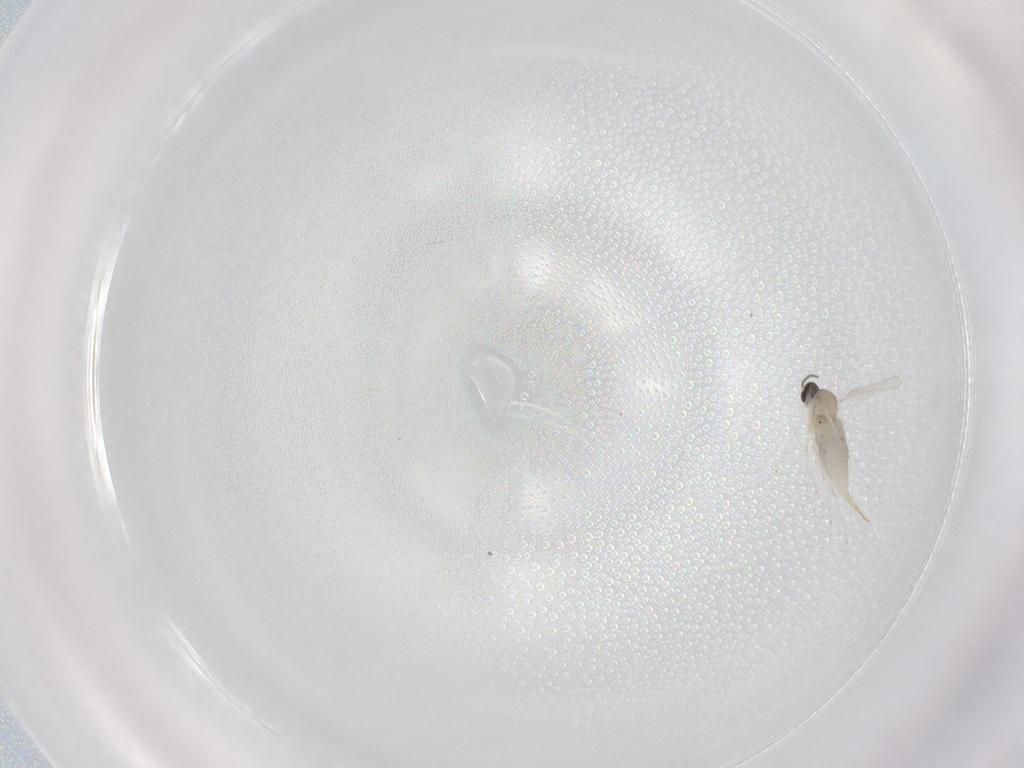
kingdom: Animalia
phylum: Arthropoda
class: Insecta
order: Diptera
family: Cecidomyiidae
